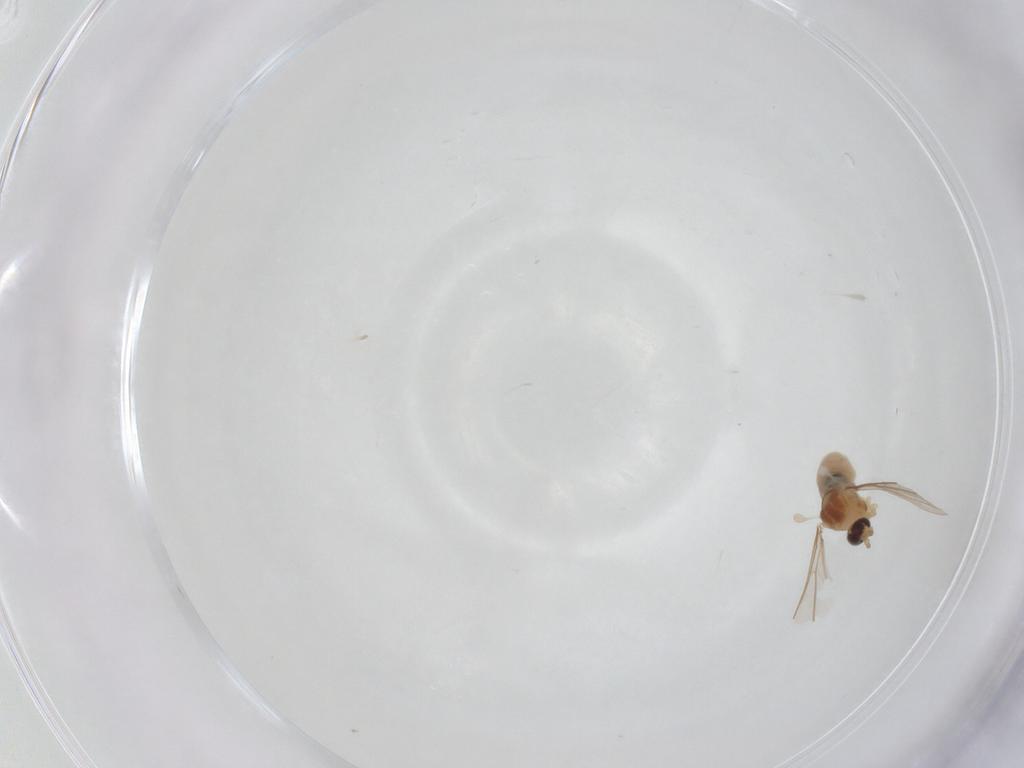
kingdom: Animalia
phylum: Arthropoda
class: Insecta
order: Diptera
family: Cecidomyiidae
